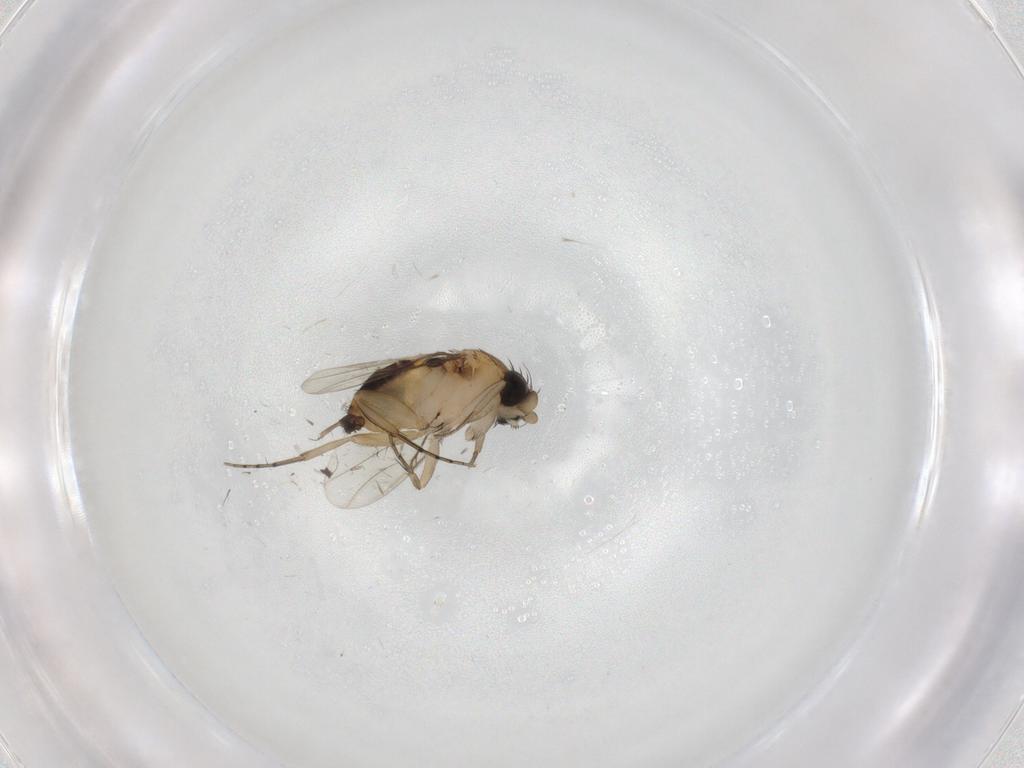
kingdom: Animalia
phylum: Arthropoda
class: Insecta
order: Diptera
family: Phoridae
